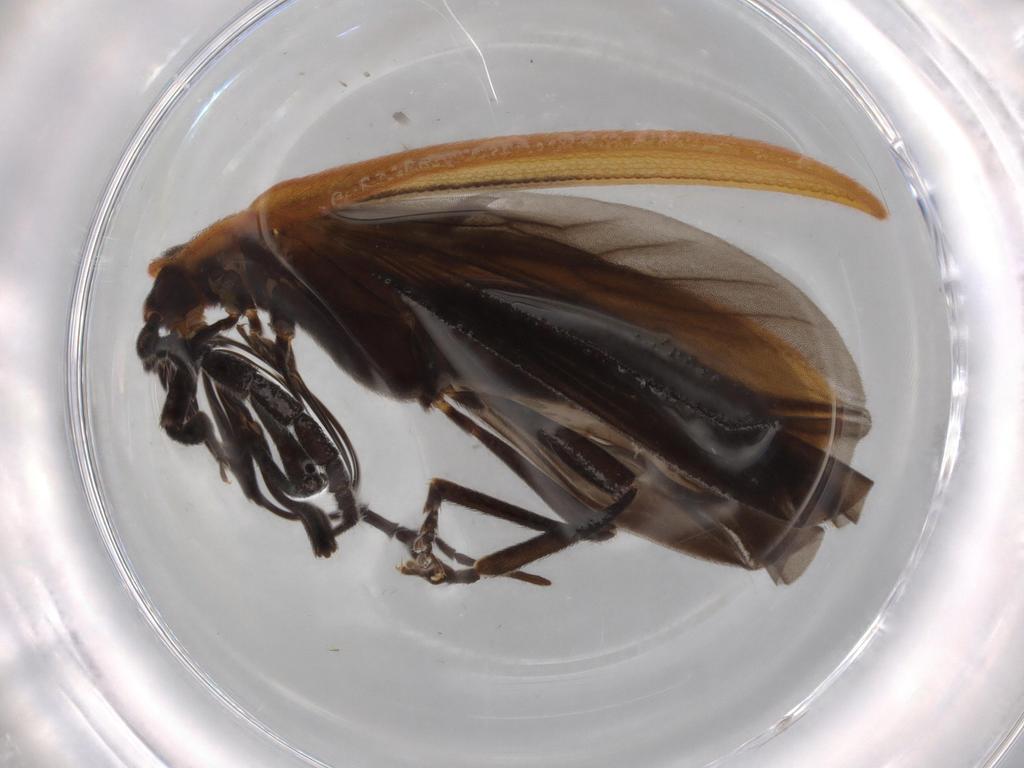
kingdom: Animalia
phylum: Arthropoda
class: Insecta
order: Coleoptera
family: Lycidae
